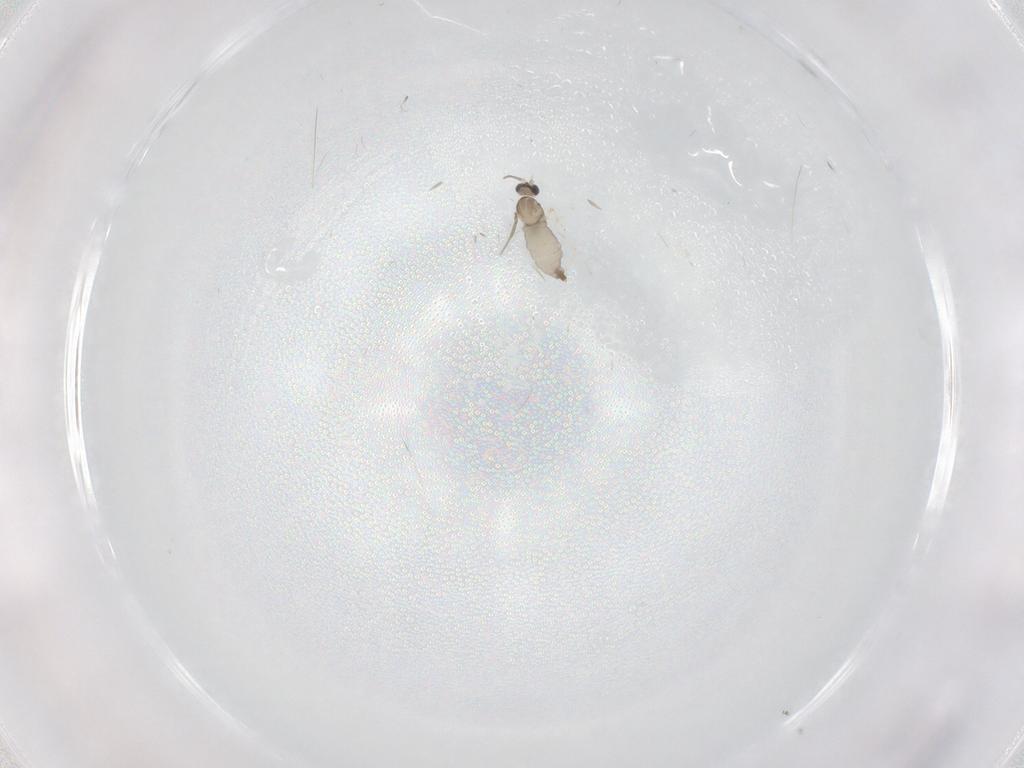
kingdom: Animalia
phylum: Arthropoda
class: Insecta
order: Diptera
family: Cecidomyiidae
